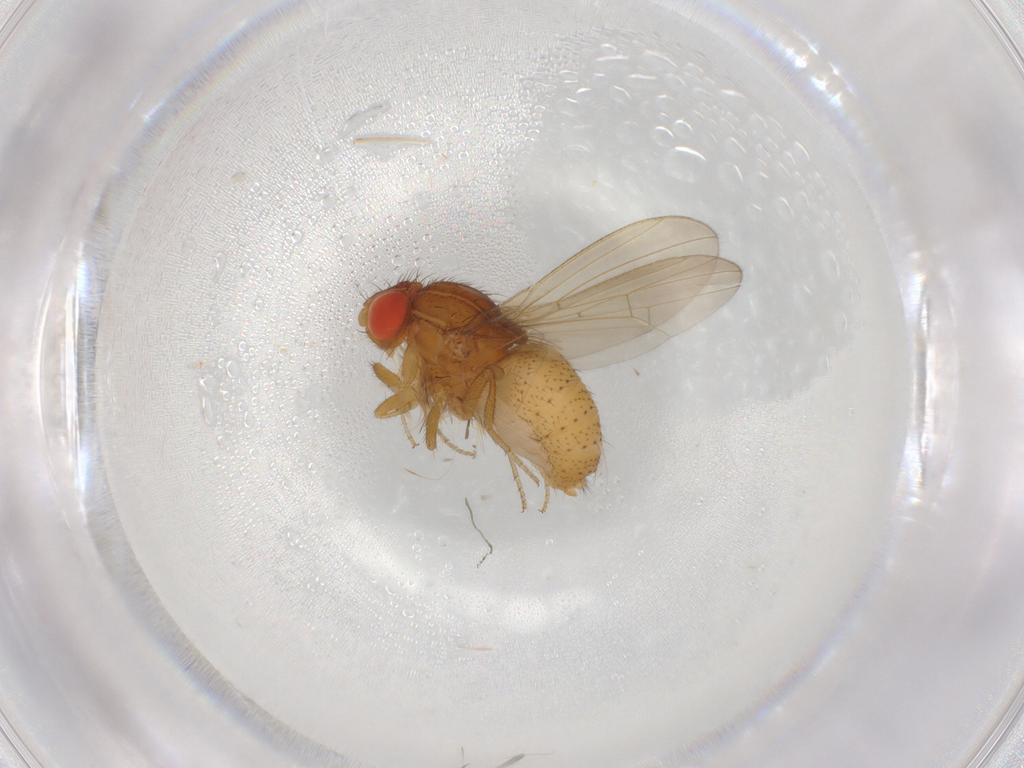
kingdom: Animalia
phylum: Arthropoda
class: Insecta
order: Diptera
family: Drosophilidae
